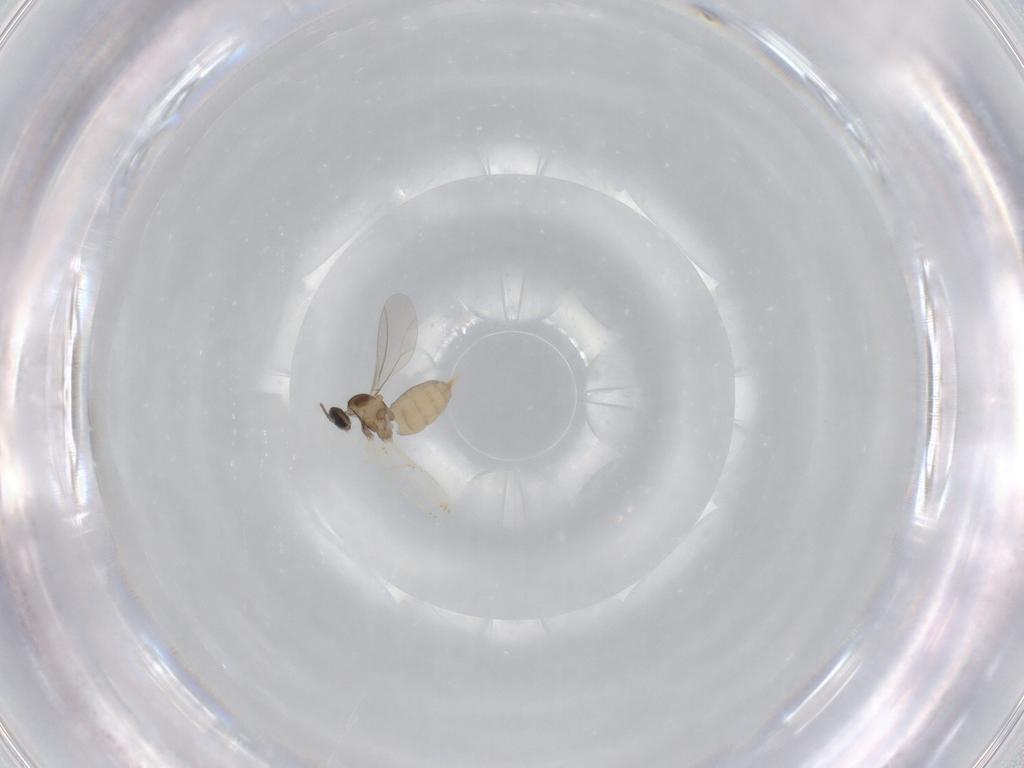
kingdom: Animalia
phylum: Arthropoda
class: Insecta
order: Diptera
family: Cecidomyiidae
